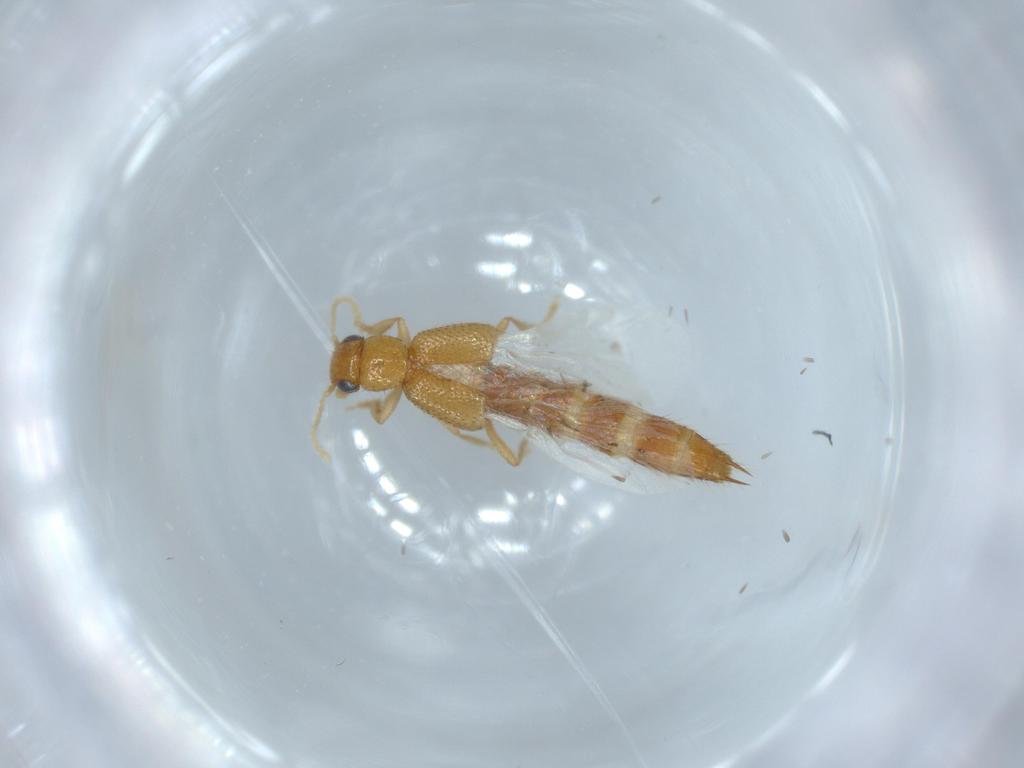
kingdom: Animalia
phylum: Arthropoda
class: Insecta
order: Coleoptera
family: Staphylinidae
